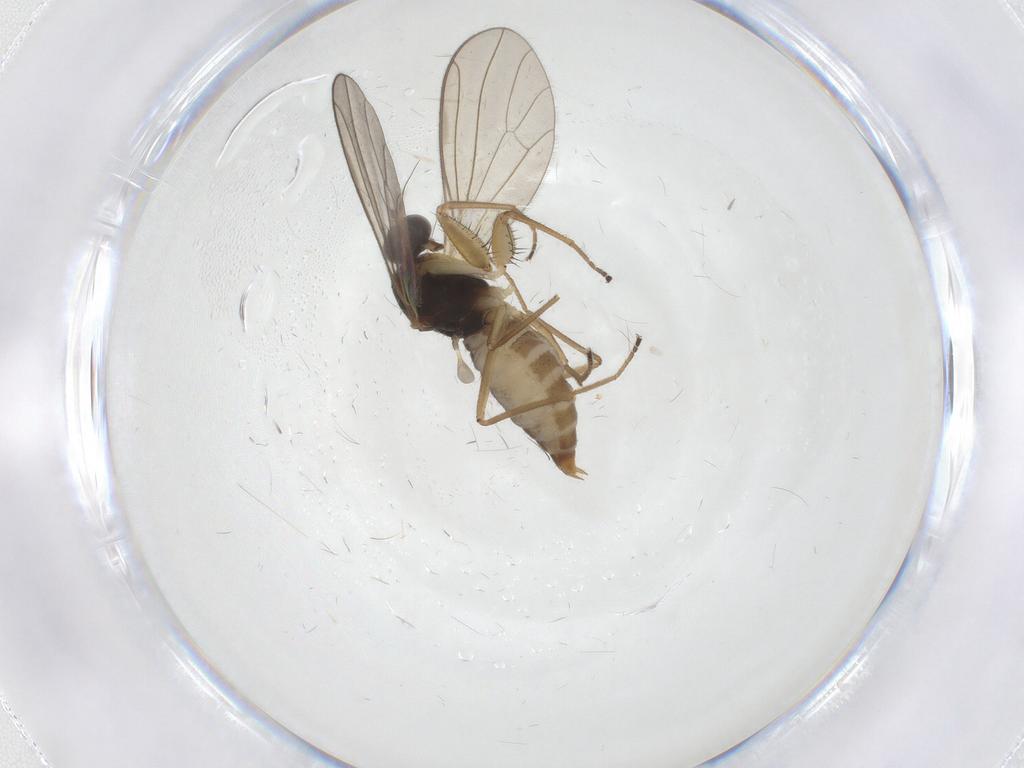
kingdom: Animalia
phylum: Arthropoda
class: Insecta
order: Diptera
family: Empididae
